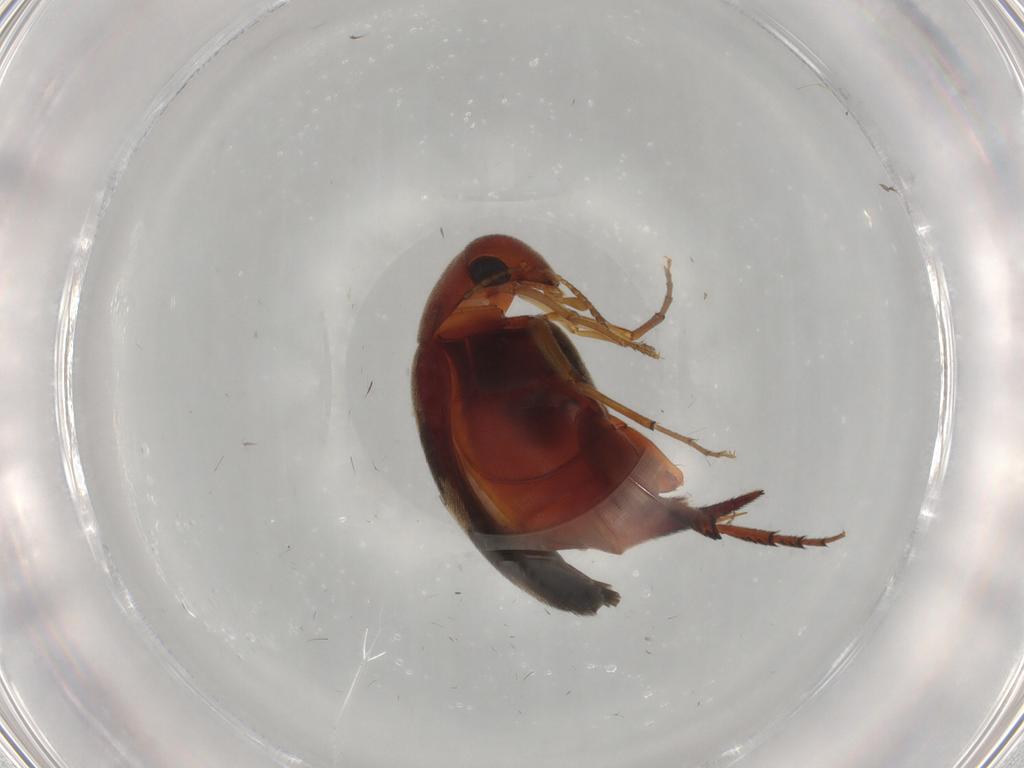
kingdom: Animalia
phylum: Arthropoda
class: Insecta
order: Coleoptera
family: Mordellidae
